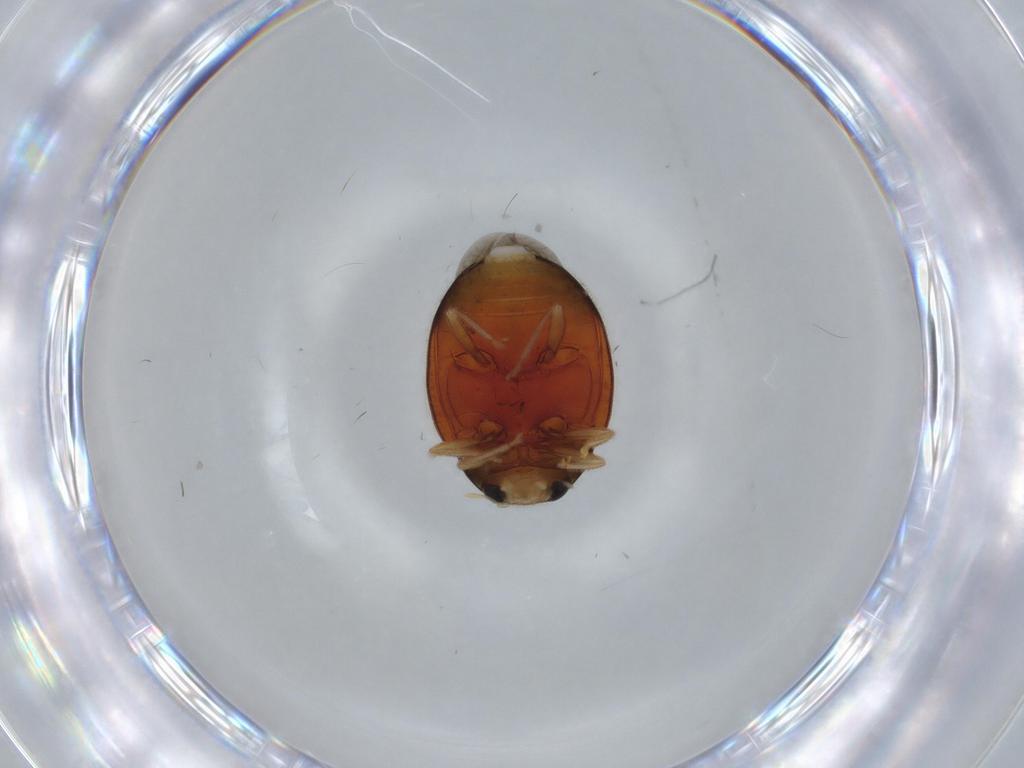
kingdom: Animalia
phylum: Arthropoda
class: Insecta
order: Coleoptera
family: Coccinellidae
